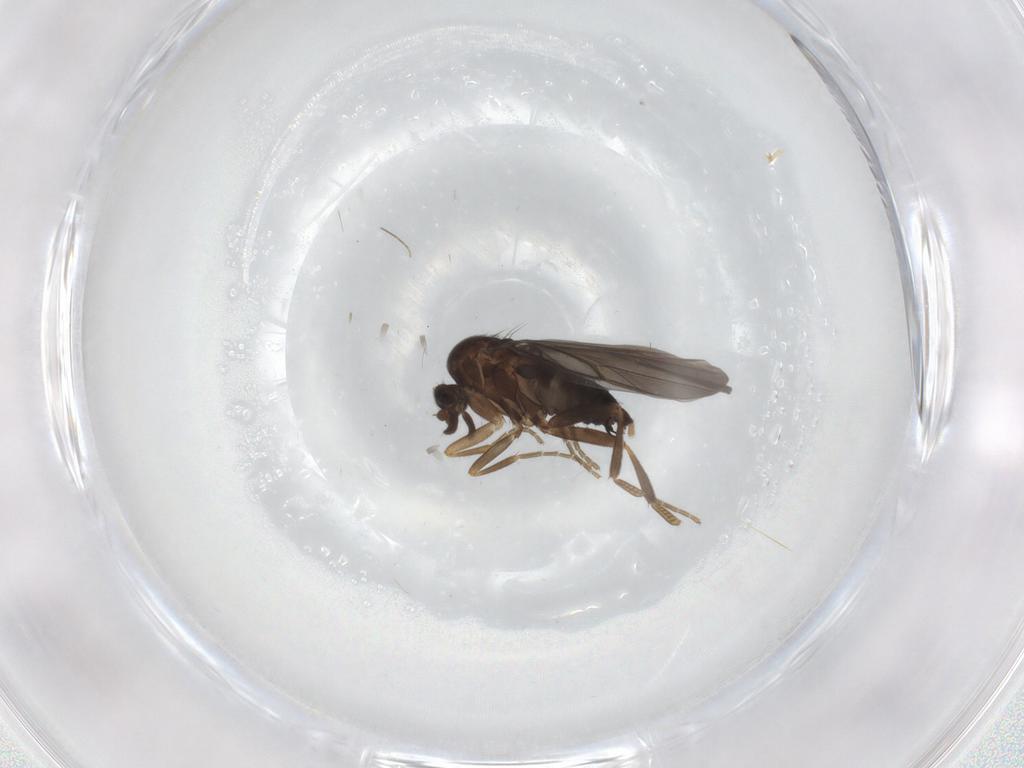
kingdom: Animalia
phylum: Arthropoda
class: Insecta
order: Diptera
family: Chironomidae
